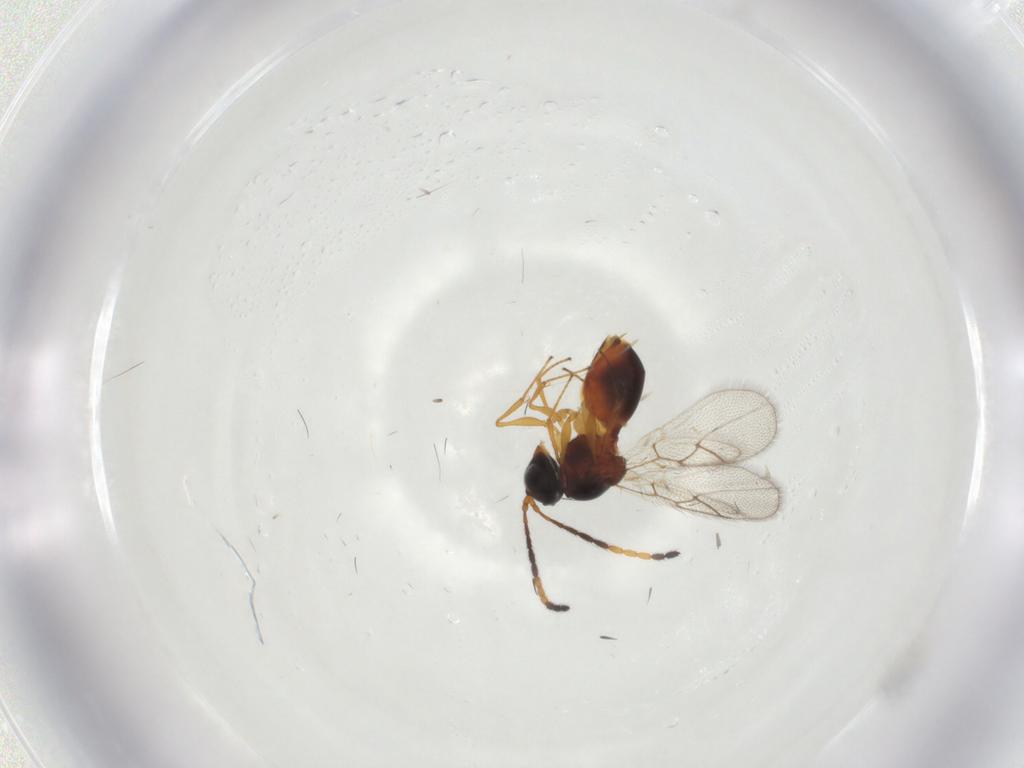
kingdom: Animalia
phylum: Arthropoda
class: Insecta
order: Hymenoptera
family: Figitidae
